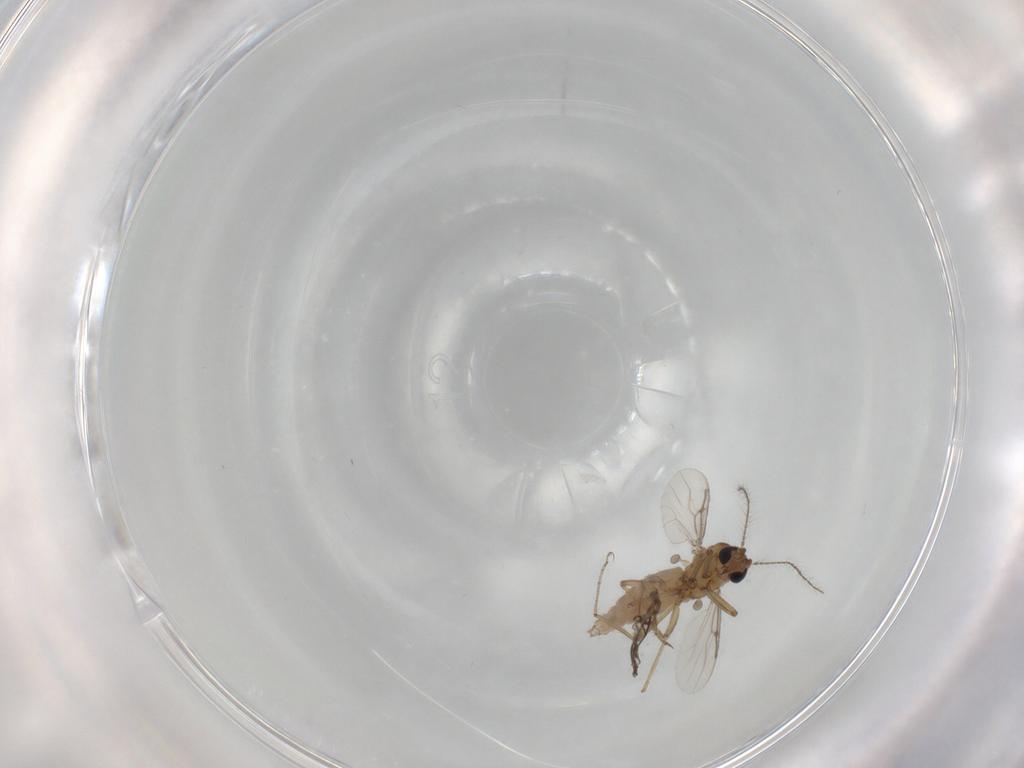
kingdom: Animalia
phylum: Arthropoda
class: Insecta
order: Diptera
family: Ceratopogonidae
